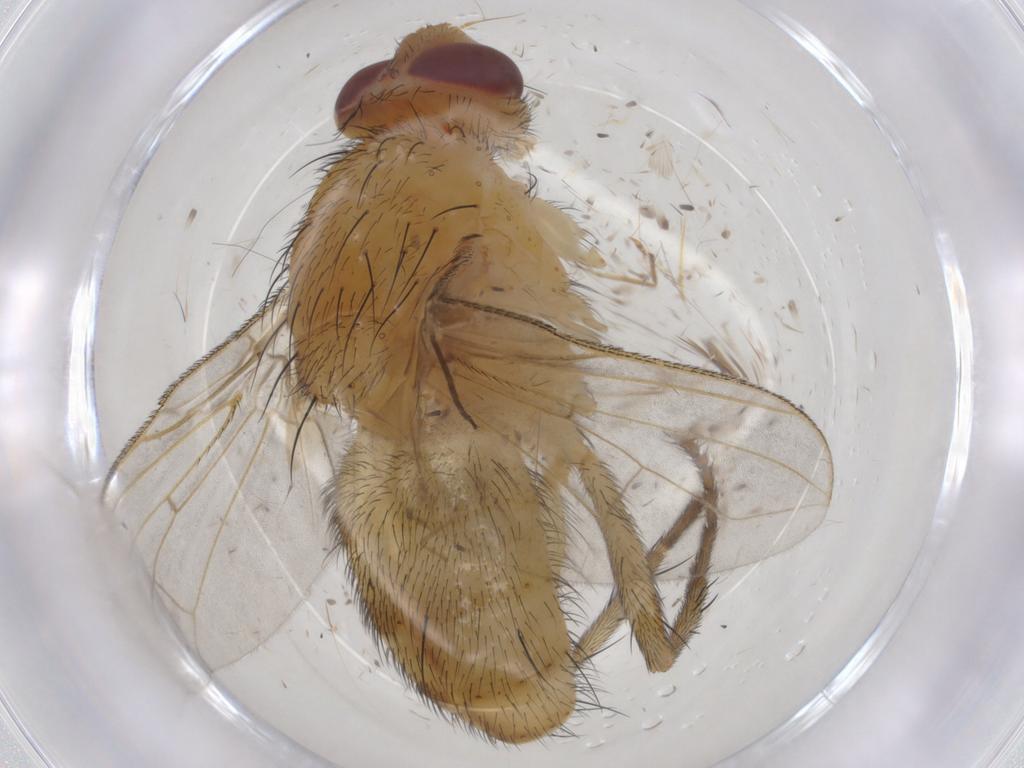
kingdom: Animalia
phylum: Arthropoda
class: Insecta
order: Diptera
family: Tachinidae
